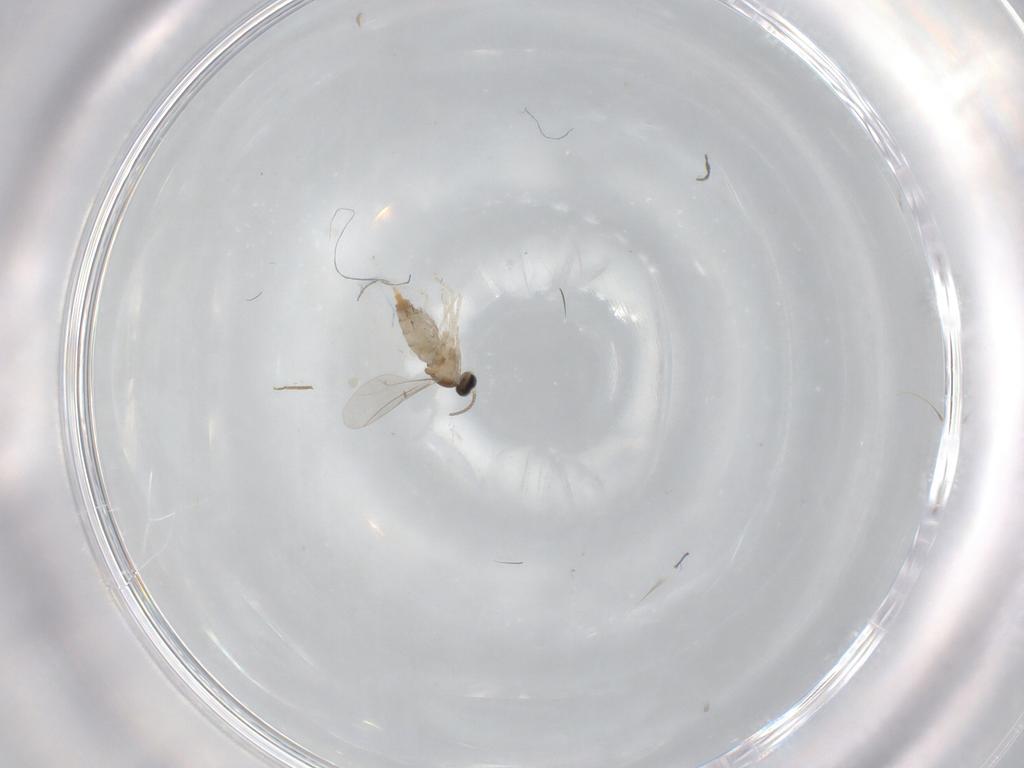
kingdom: Animalia
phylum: Arthropoda
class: Insecta
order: Diptera
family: Cecidomyiidae
